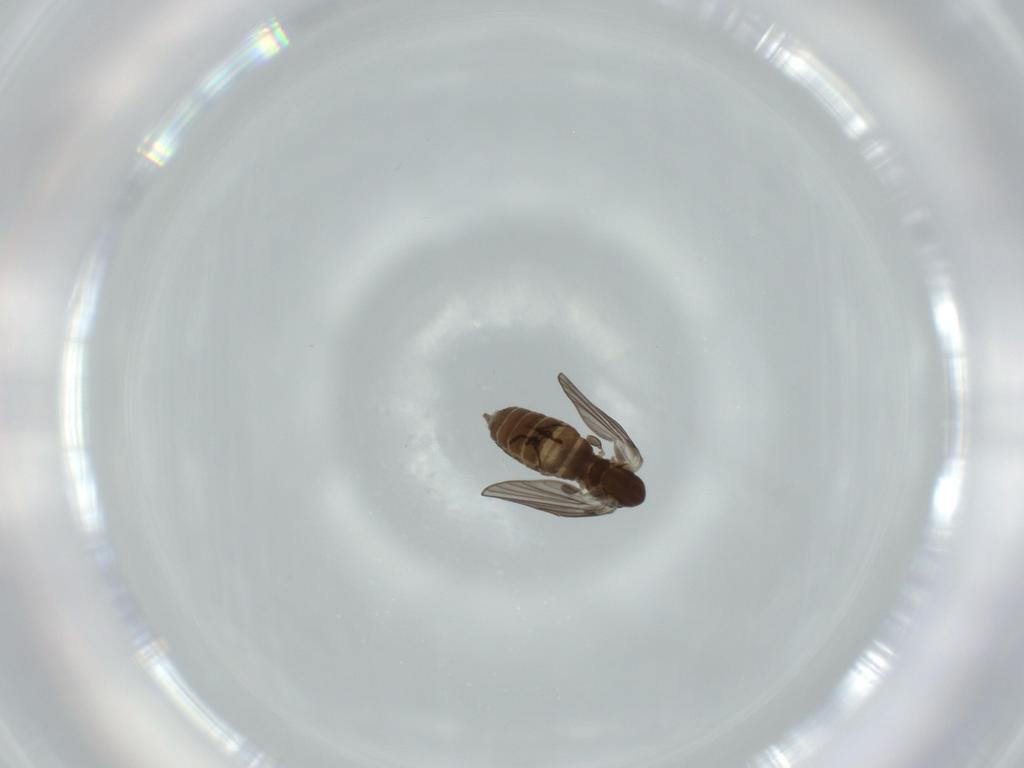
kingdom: Animalia
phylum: Arthropoda
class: Insecta
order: Diptera
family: Psychodidae
